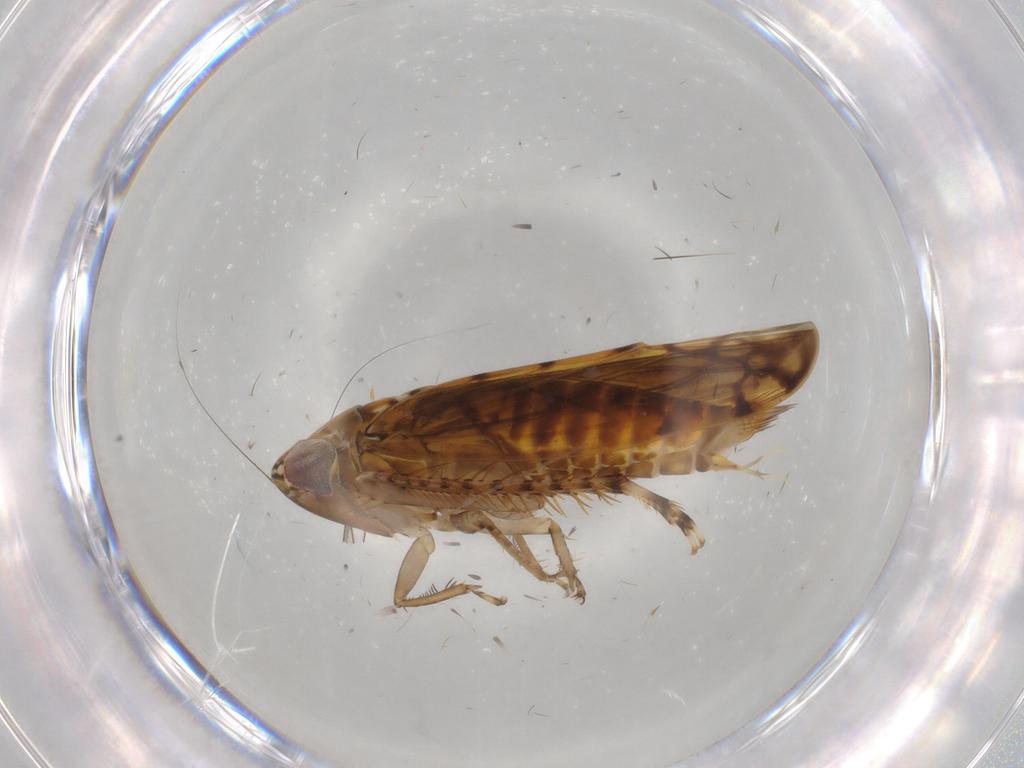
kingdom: Animalia
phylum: Arthropoda
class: Insecta
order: Hemiptera
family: Cicadellidae
